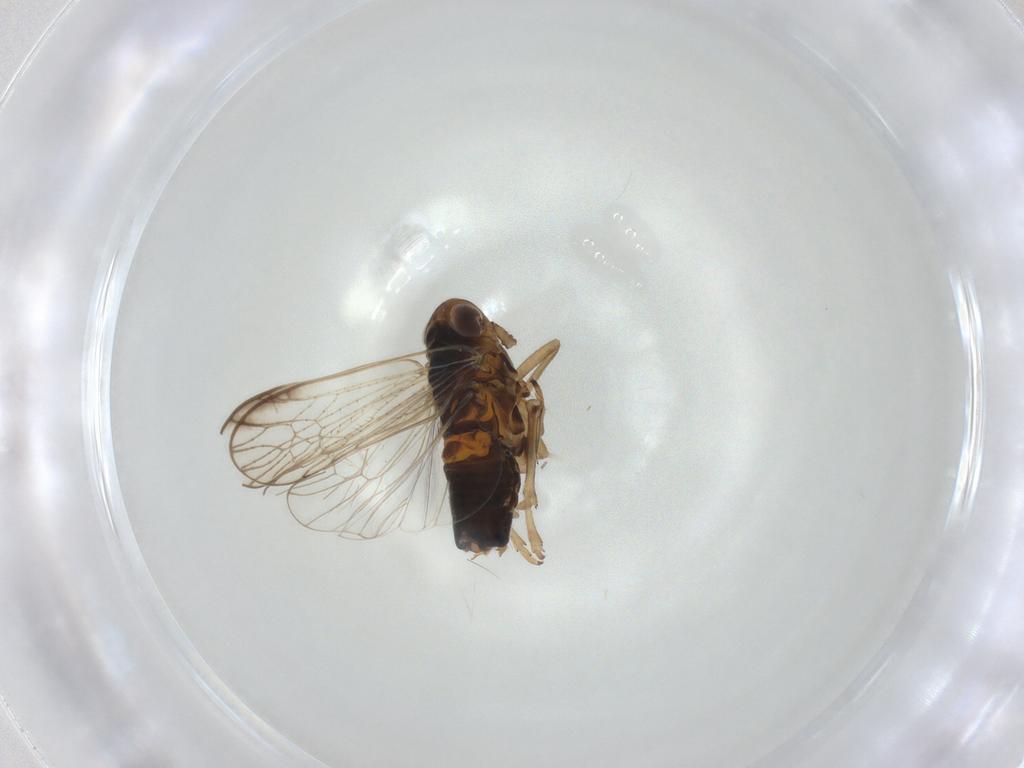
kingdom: Animalia
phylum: Arthropoda
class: Insecta
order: Hemiptera
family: Delphacidae
